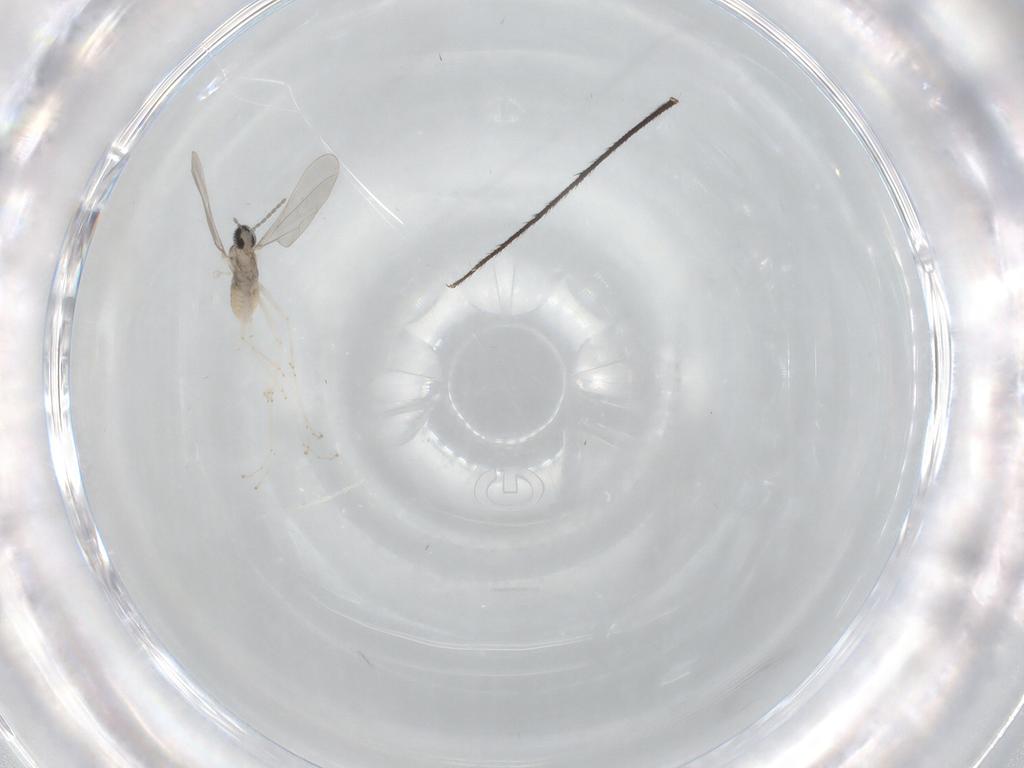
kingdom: Animalia
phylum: Arthropoda
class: Insecta
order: Diptera
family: Ditomyiidae
